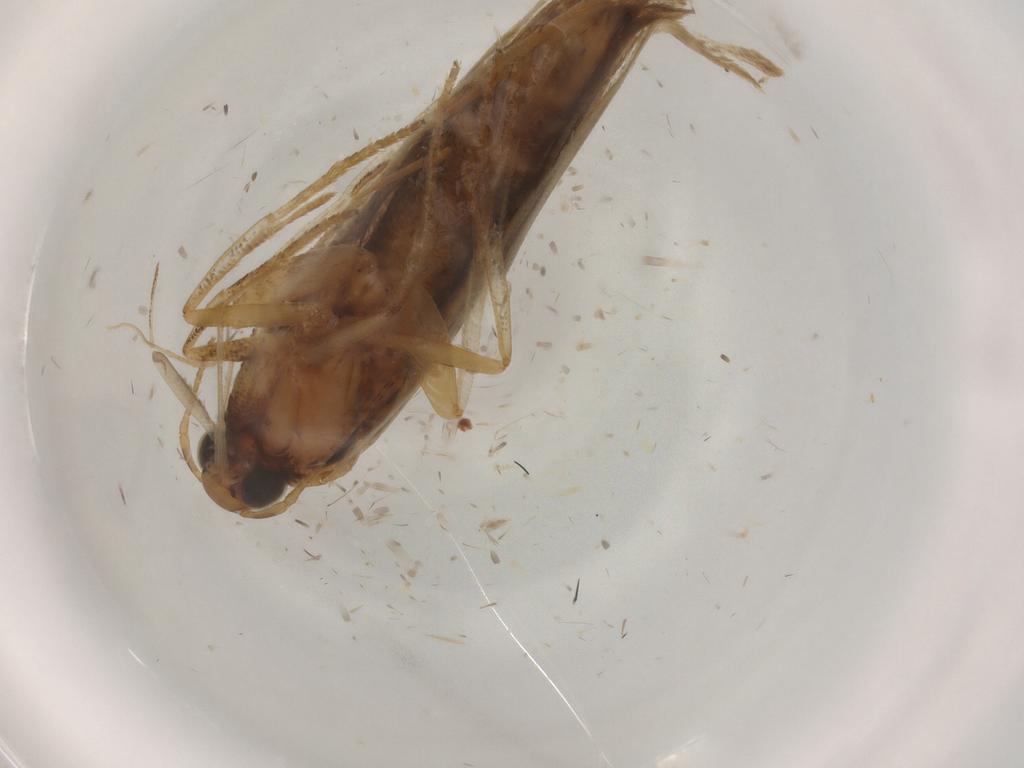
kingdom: Animalia
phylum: Arthropoda
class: Insecta
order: Lepidoptera
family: Gelechiidae
